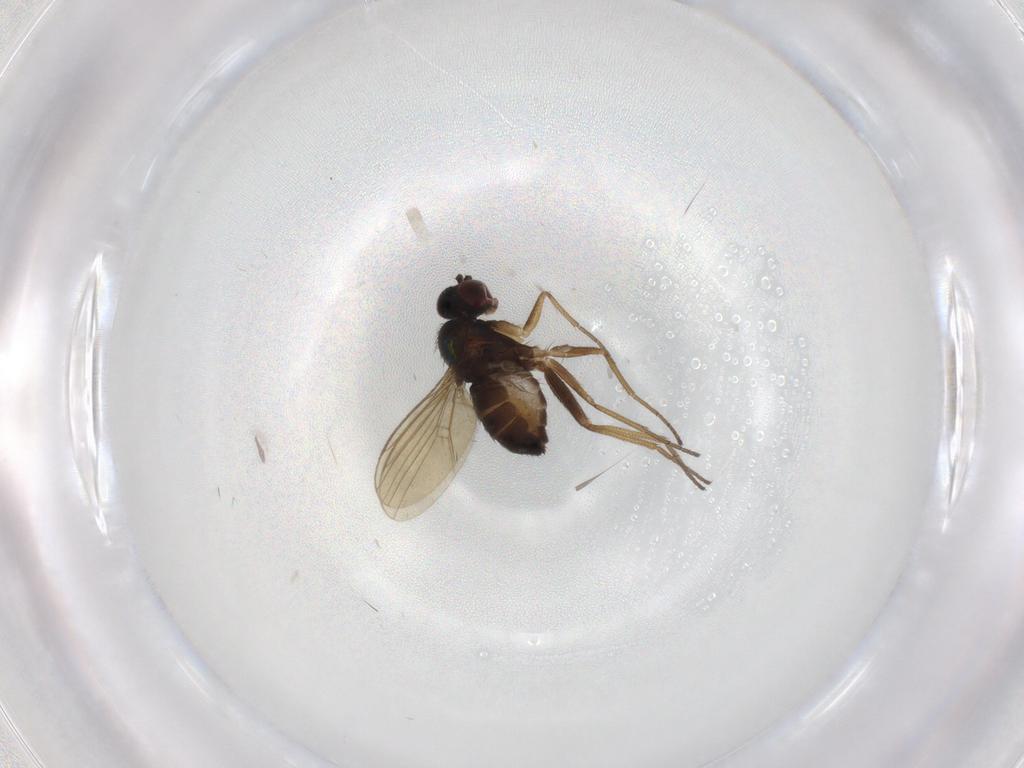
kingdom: Animalia
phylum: Arthropoda
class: Insecta
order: Diptera
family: Dolichopodidae
